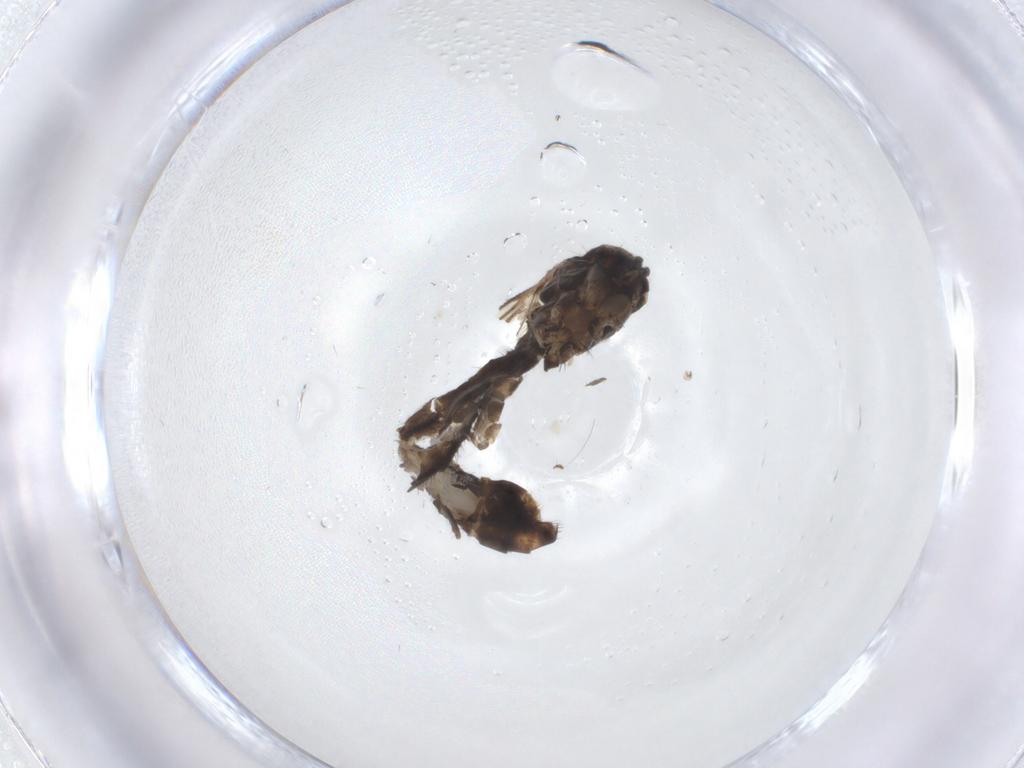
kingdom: Animalia
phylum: Arthropoda
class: Insecta
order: Diptera
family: Mycetophilidae
